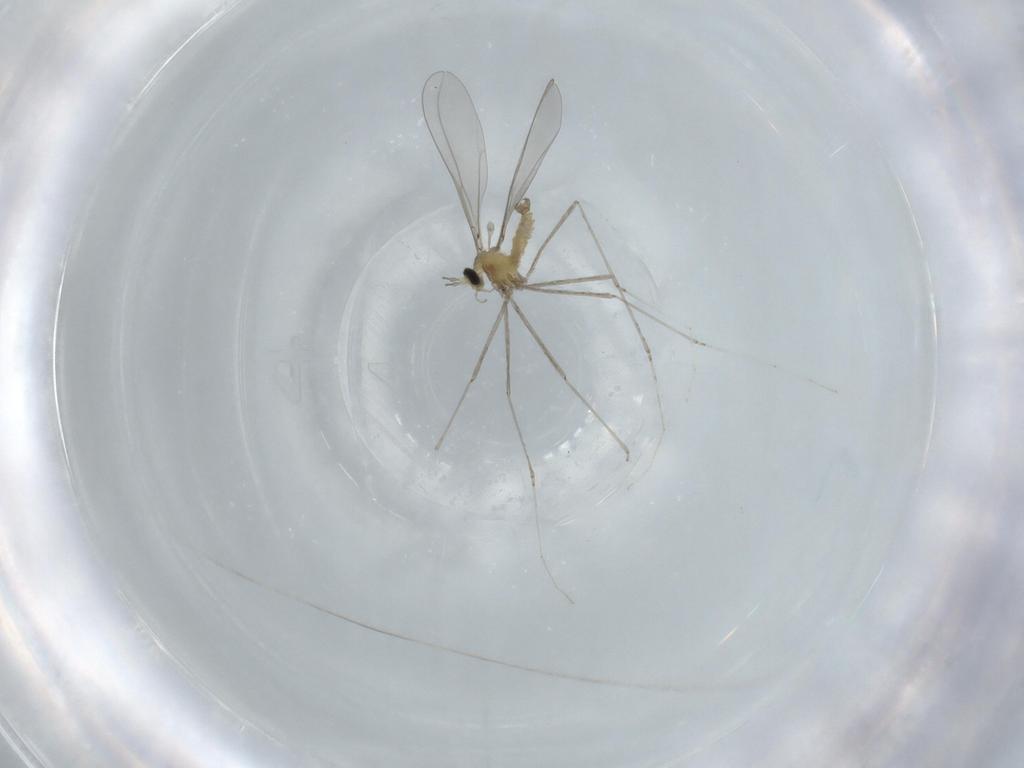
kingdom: Animalia
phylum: Arthropoda
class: Insecta
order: Diptera
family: Cecidomyiidae
